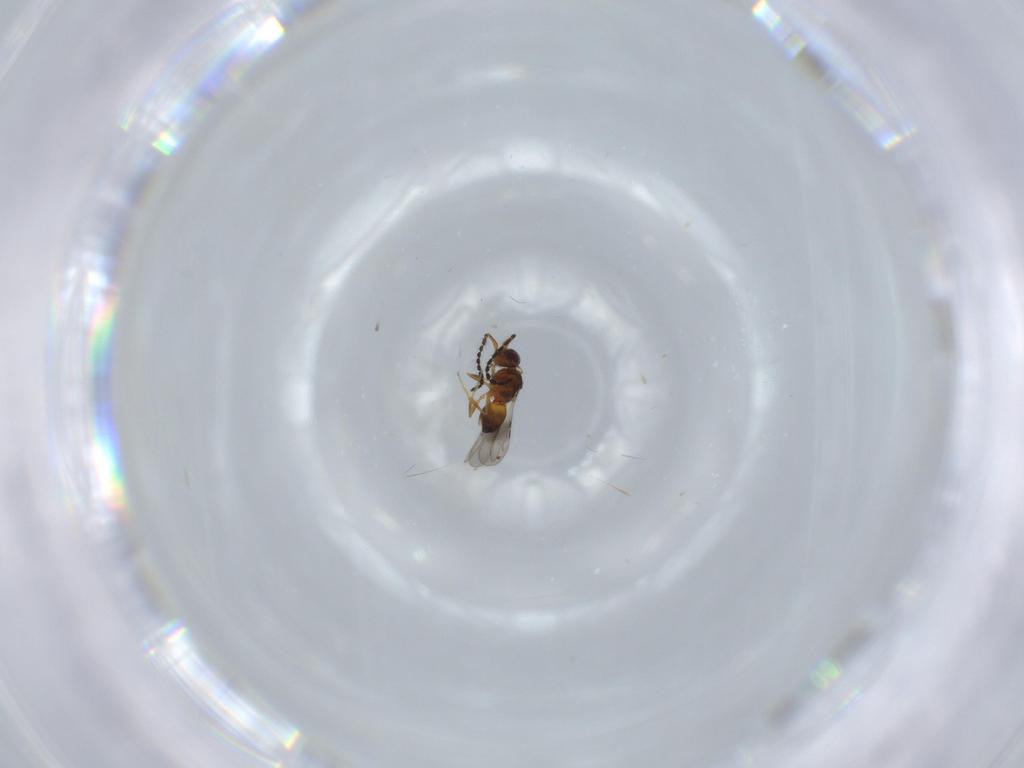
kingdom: Animalia
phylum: Arthropoda
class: Insecta
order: Hymenoptera
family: Ceraphronidae
